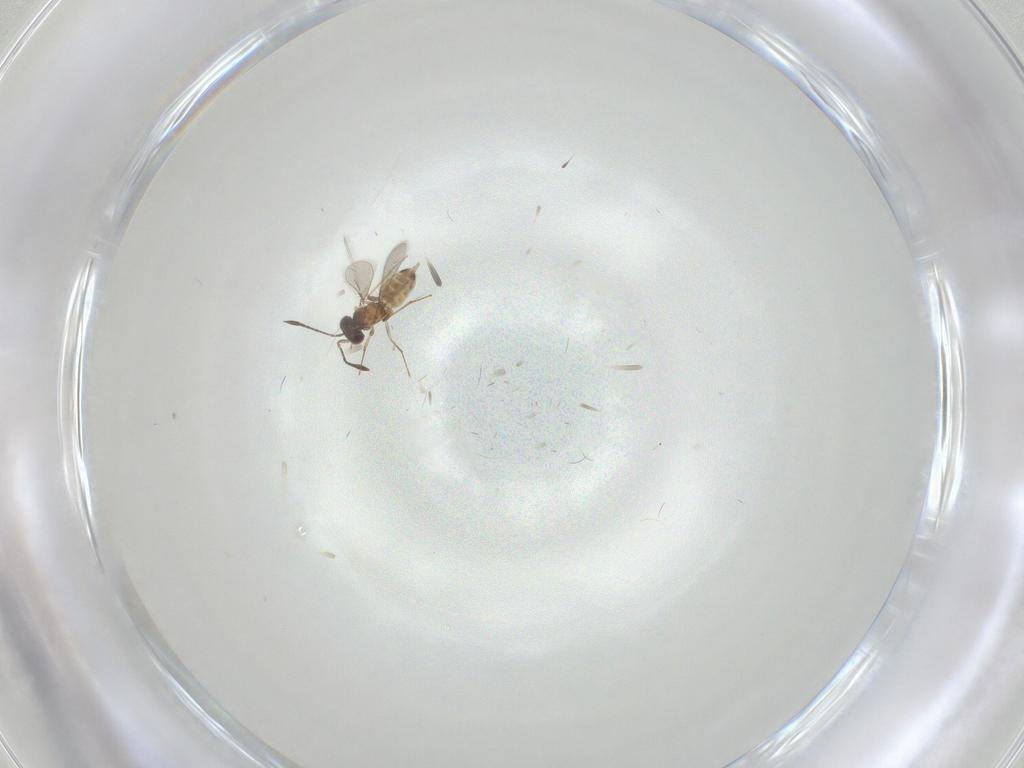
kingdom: Animalia
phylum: Arthropoda
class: Insecta
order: Hymenoptera
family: Mymaridae
